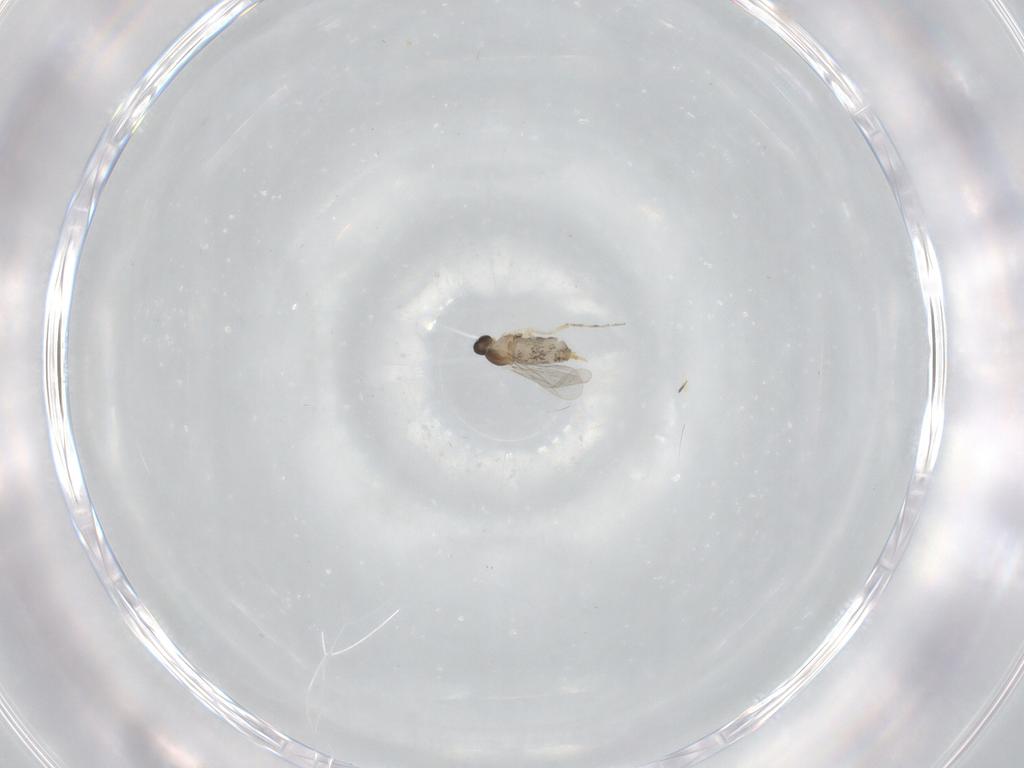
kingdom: Animalia
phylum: Arthropoda
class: Insecta
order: Diptera
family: Cecidomyiidae
